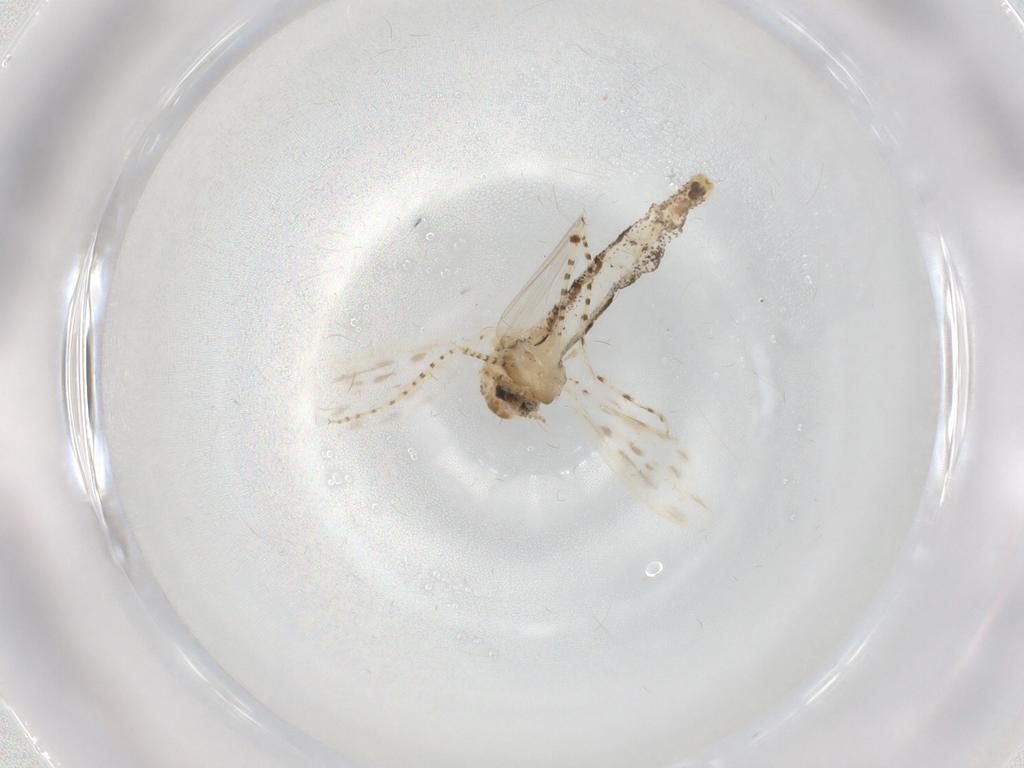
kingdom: Animalia
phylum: Arthropoda
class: Insecta
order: Diptera
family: Chaoboridae
